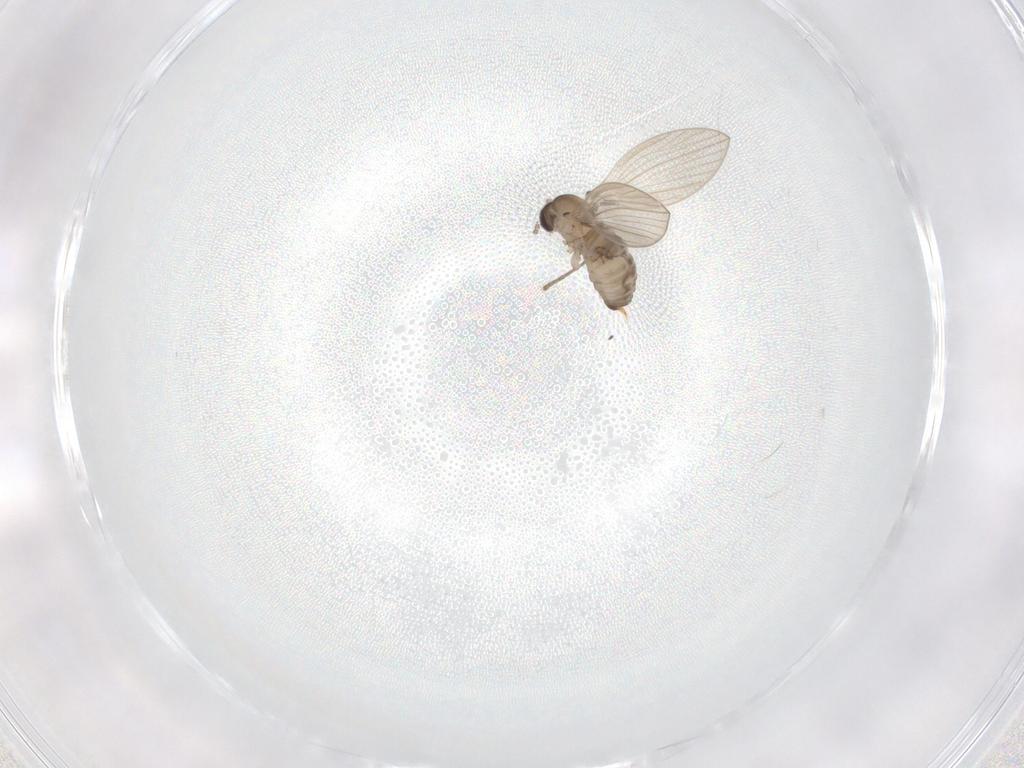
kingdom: Animalia
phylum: Arthropoda
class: Insecta
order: Diptera
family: Psychodidae
